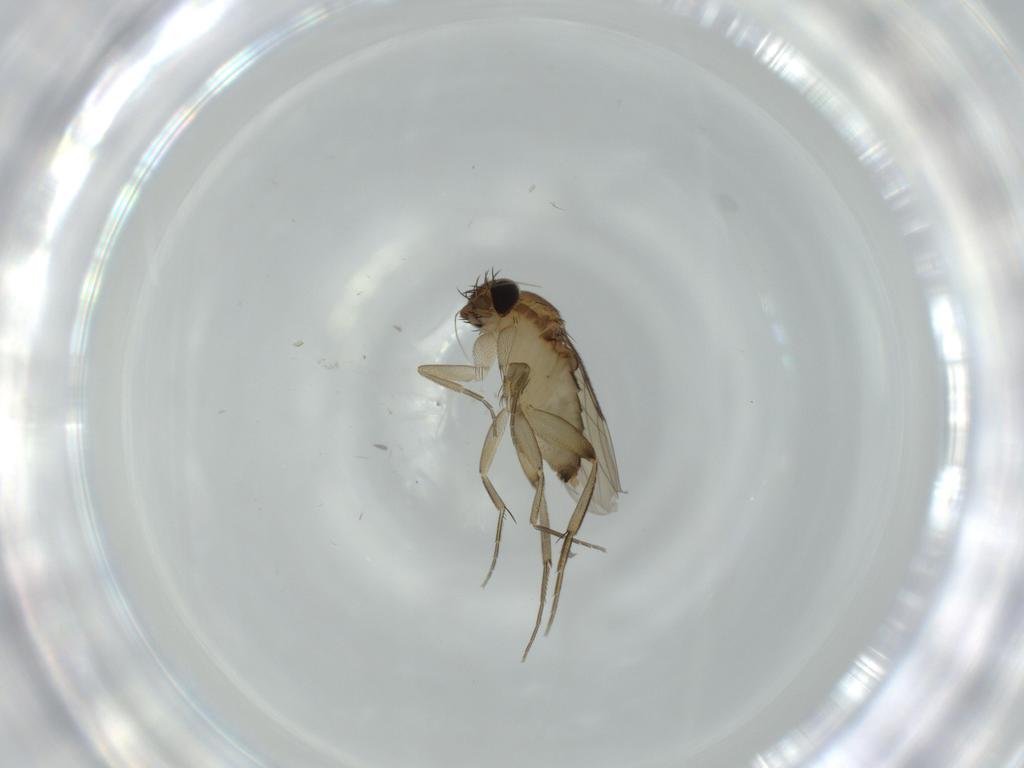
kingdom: Animalia
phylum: Arthropoda
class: Insecta
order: Diptera
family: Phoridae
